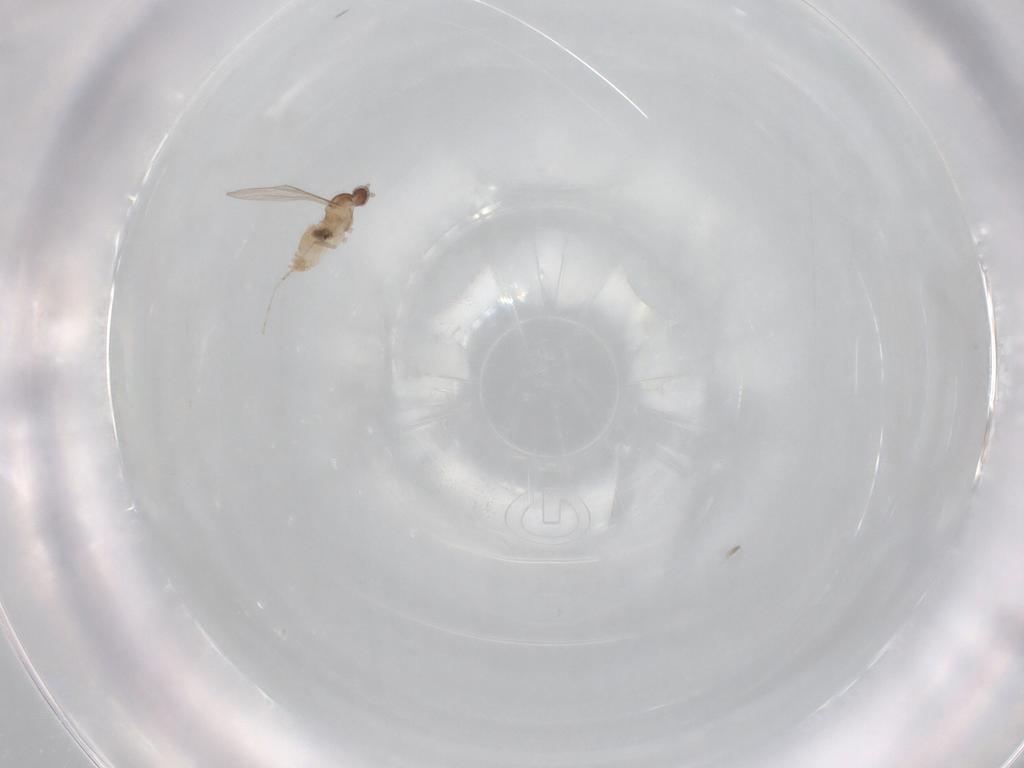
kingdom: Animalia
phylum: Arthropoda
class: Insecta
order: Diptera
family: Cecidomyiidae
